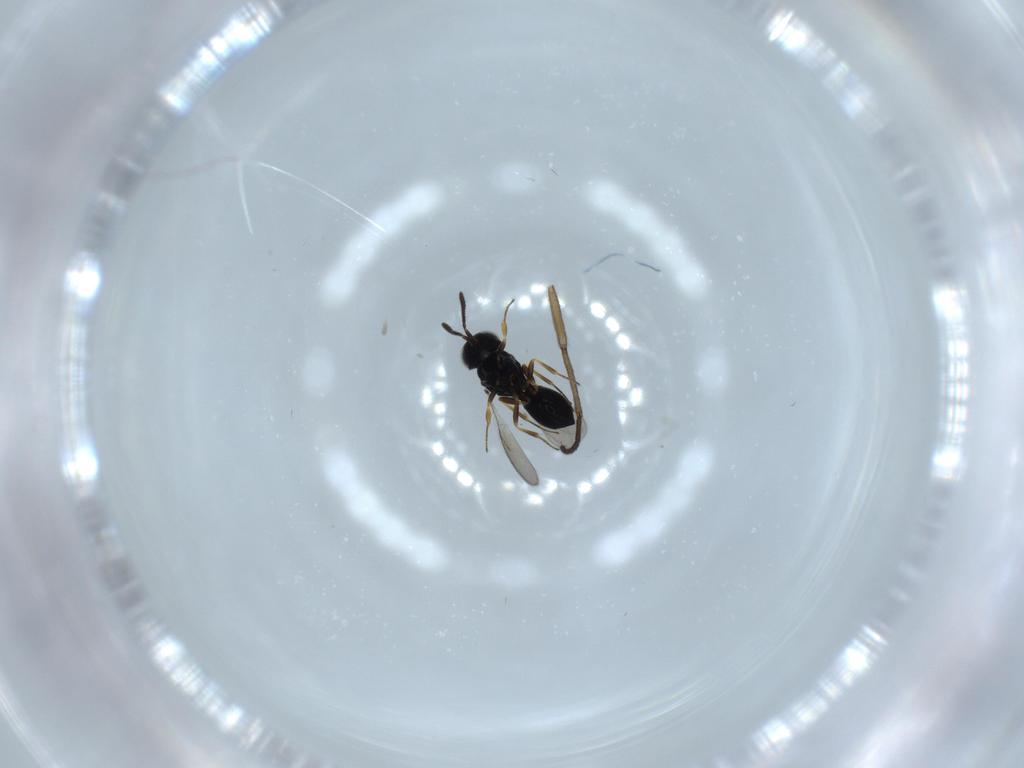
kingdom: Animalia
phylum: Arthropoda
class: Insecta
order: Hymenoptera
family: Scelionidae
